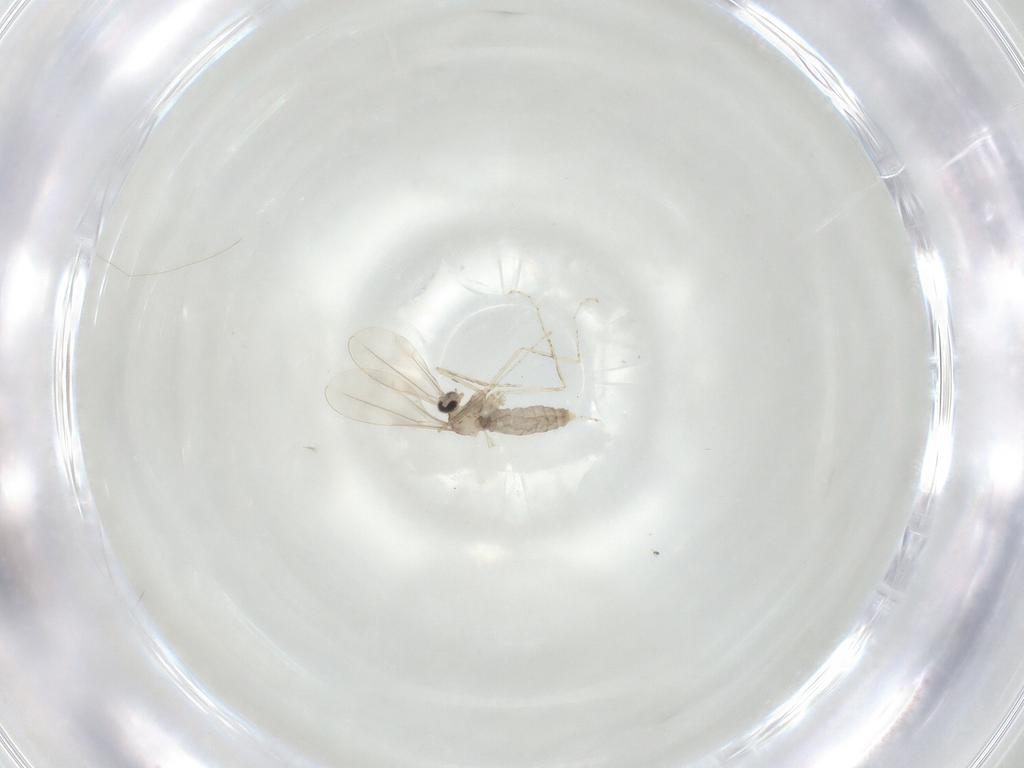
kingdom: Animalia
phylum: Arthropoda
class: Insecta
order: Diptera
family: Cecidomyiidae
